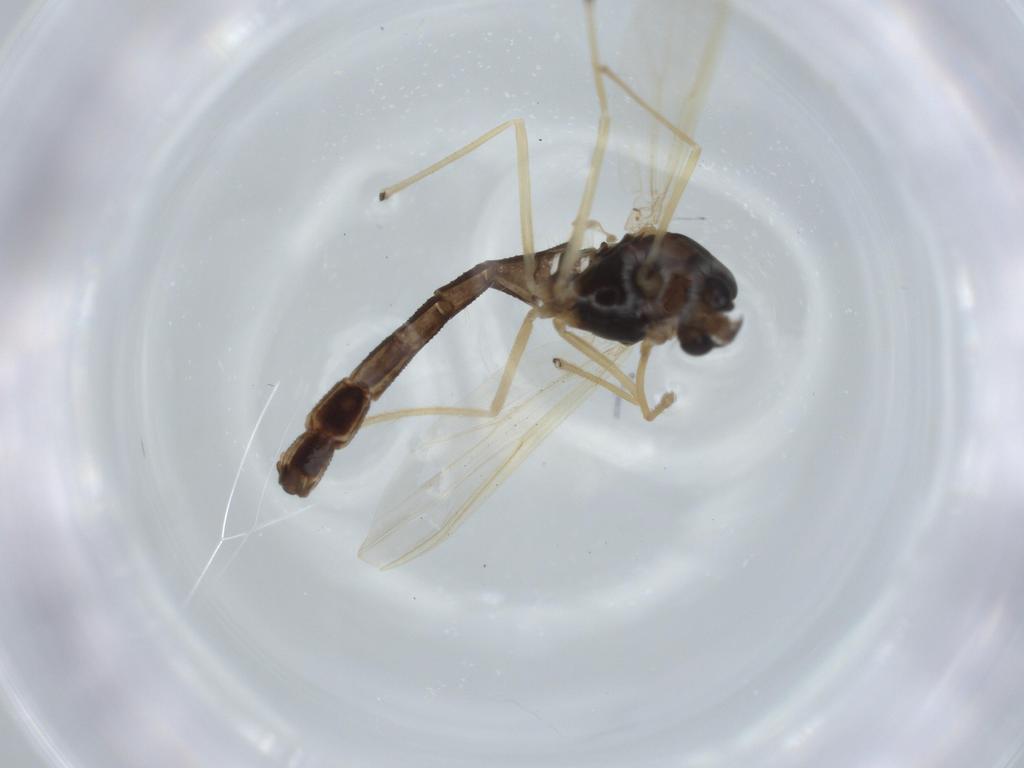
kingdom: Animalia
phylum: Arthropoda
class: Insecta
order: Diptera
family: Chironomidae
